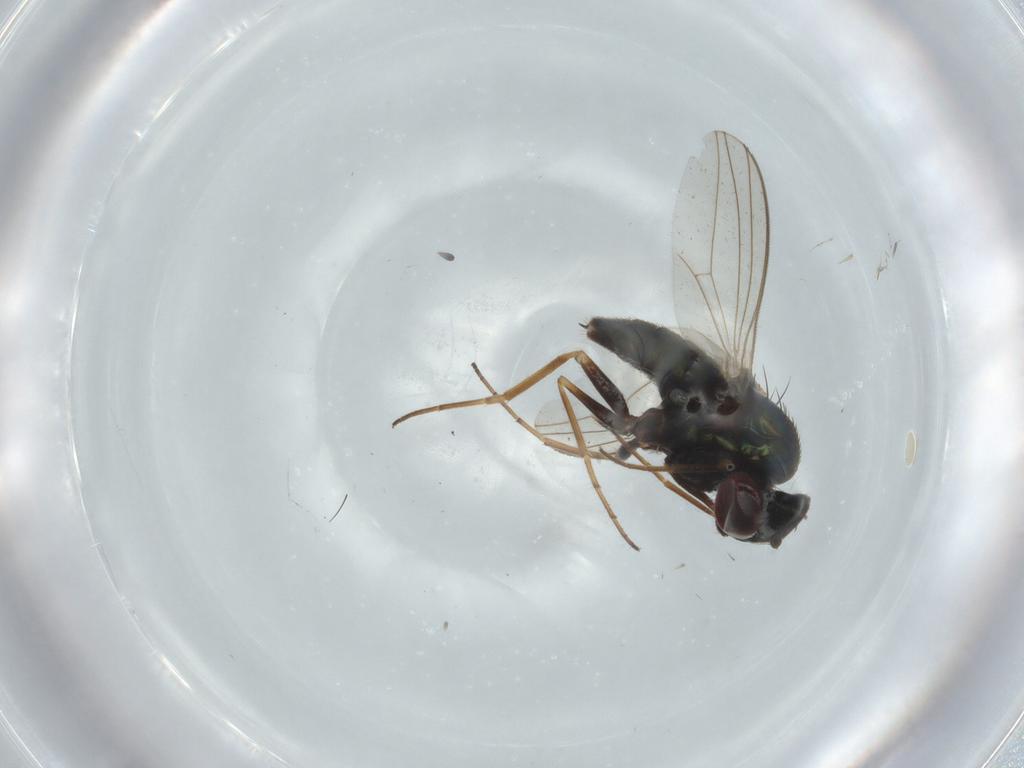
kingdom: Animalia
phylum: Arthropoda
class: Insecta
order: Diptera
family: Dolichopodidae
